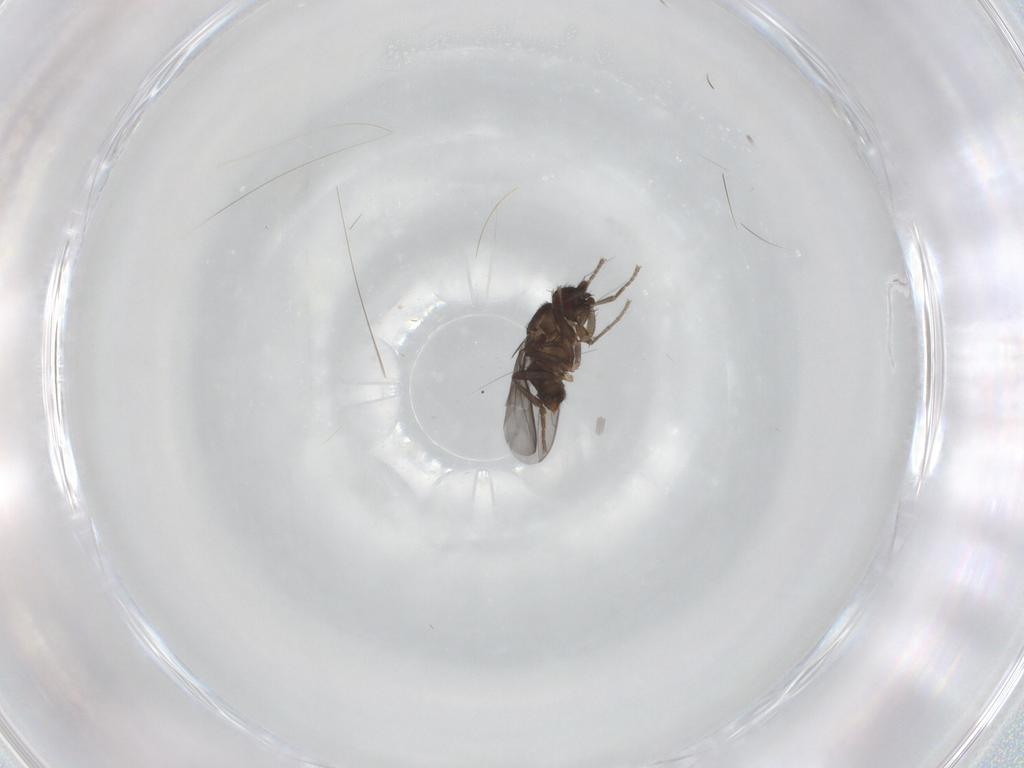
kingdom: Animalia
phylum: Arthropoda
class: Insecta
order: Diptera
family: Sphaeroceridae
